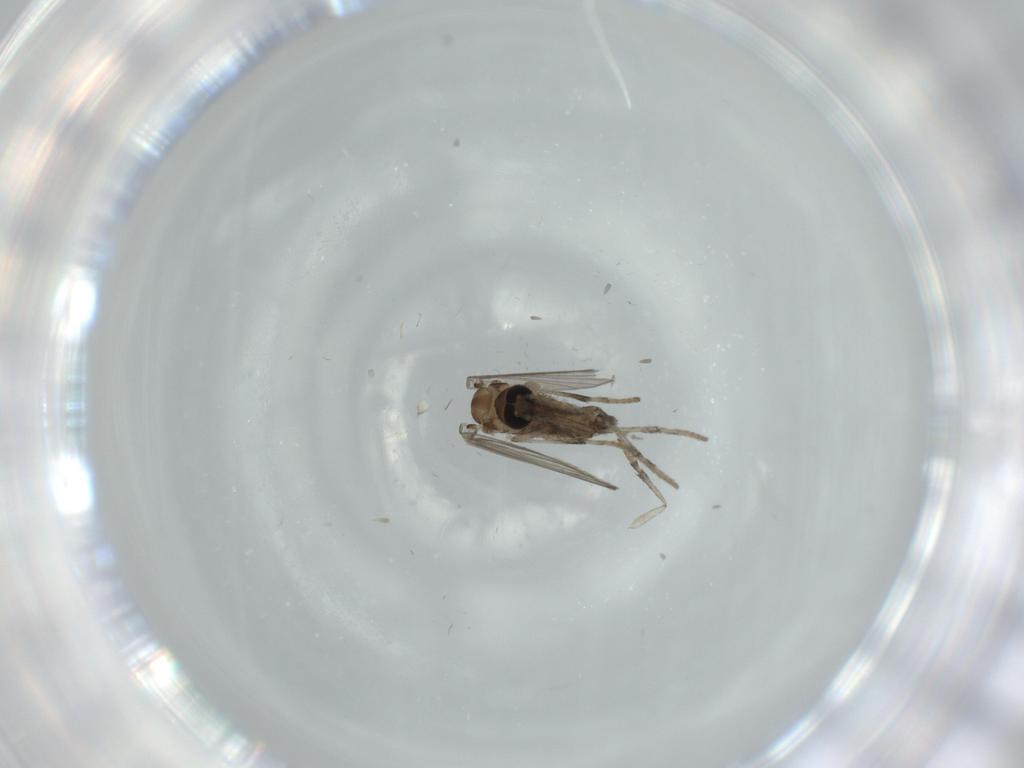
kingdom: Animalia
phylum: Arthropoda
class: Insecta
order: Diptera
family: Psychodidae
